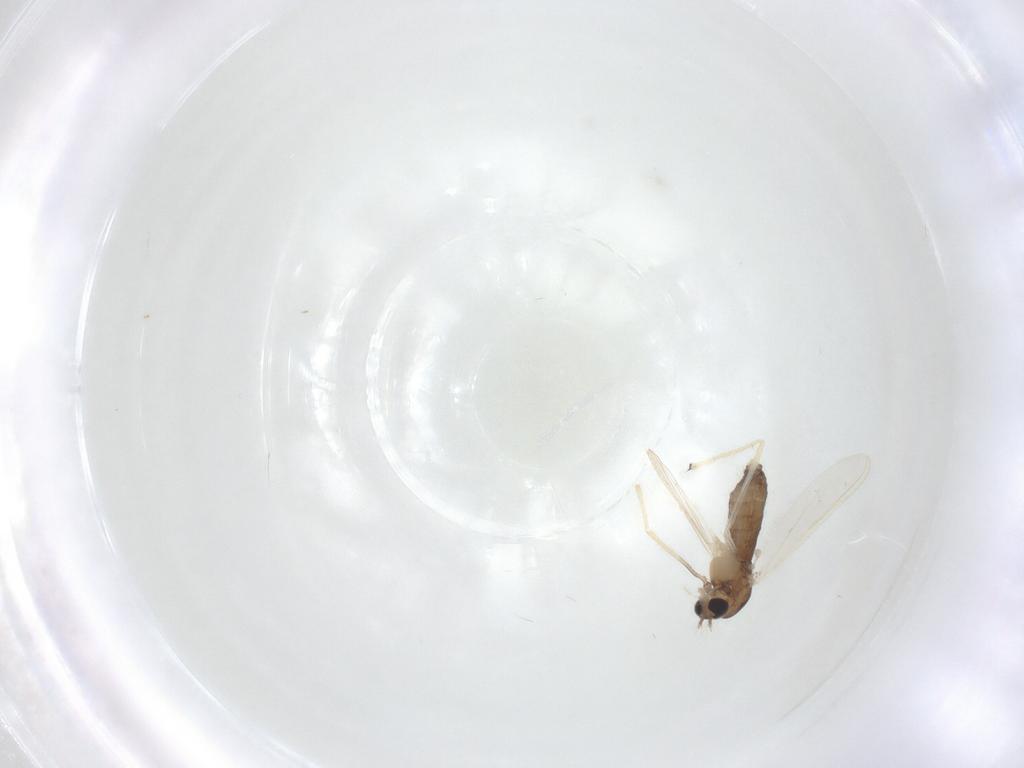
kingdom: Animalia
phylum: Arthropoda
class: Insecta
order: Diptera
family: Chironomidae
